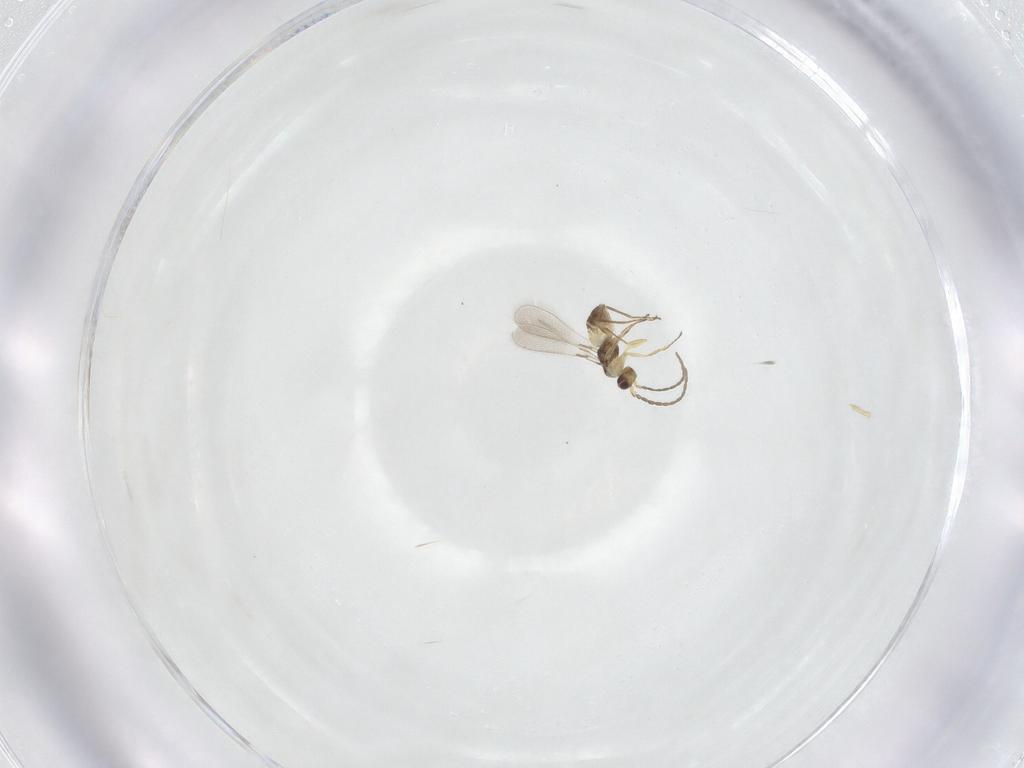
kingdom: Animalia
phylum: Arthropoda
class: Insecta
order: Hymenoptera
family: Mymaridae
